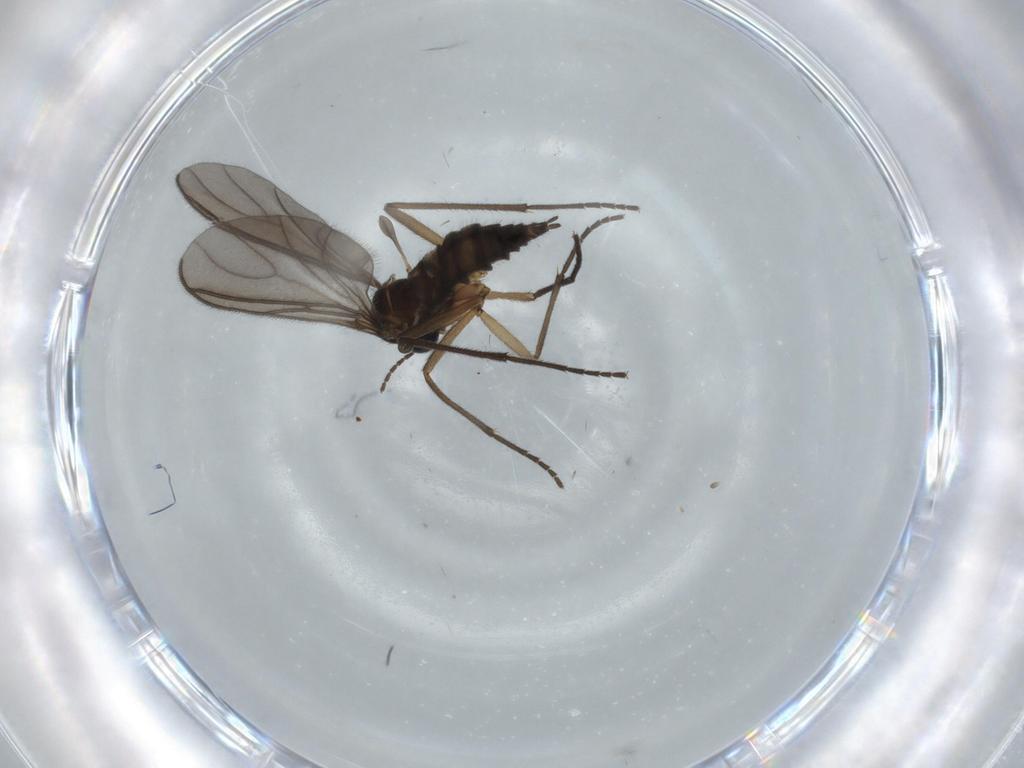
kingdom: Animalia
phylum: Arthropoda
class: Insecta
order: Diptera
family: Sciaridae
